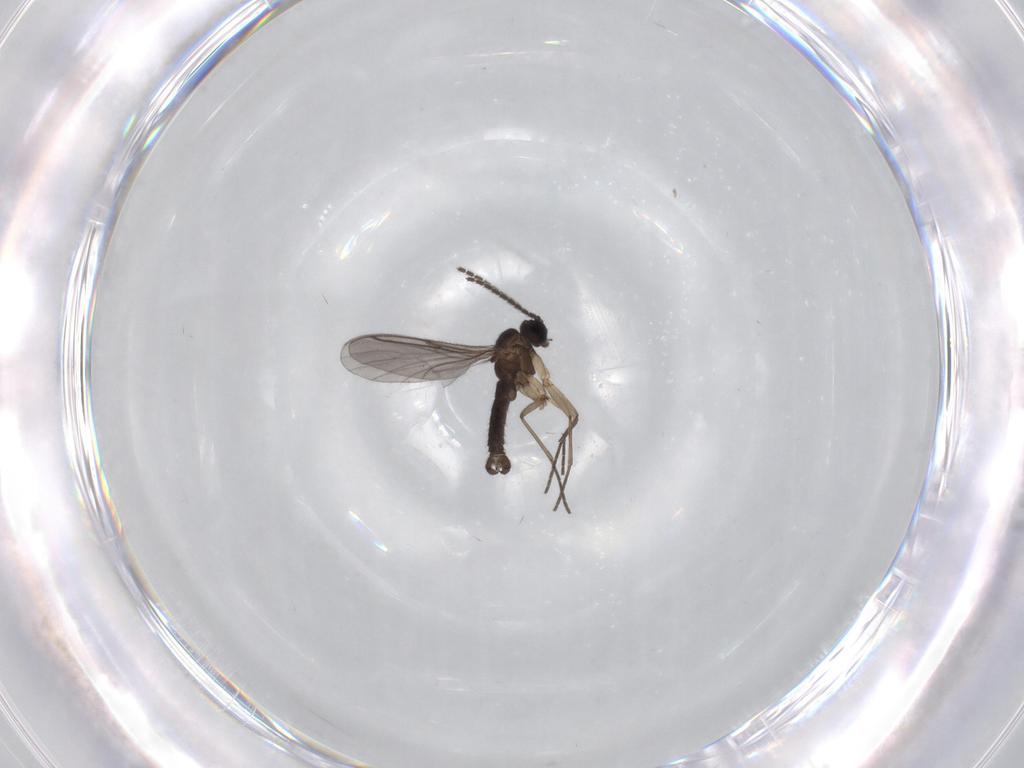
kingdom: Animalia
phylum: Arthropoda
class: Insecta
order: Diptera
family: Sciaridae
